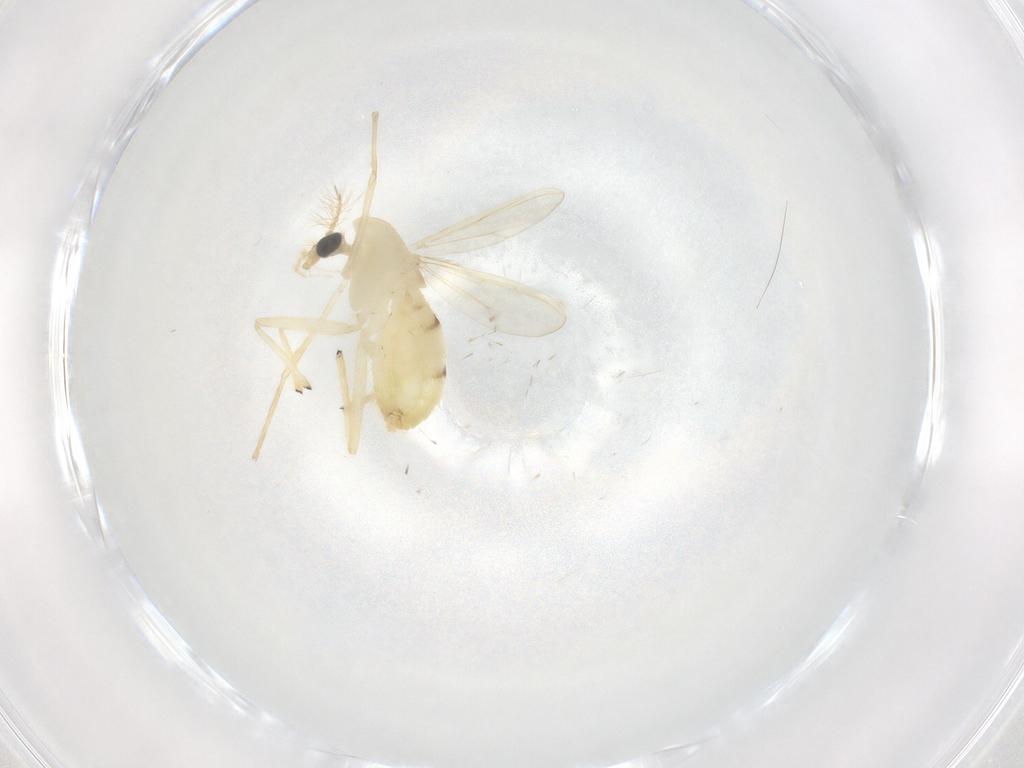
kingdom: Animalia
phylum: Arthropoda
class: Insecta
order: Diptera
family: Chironomidae
